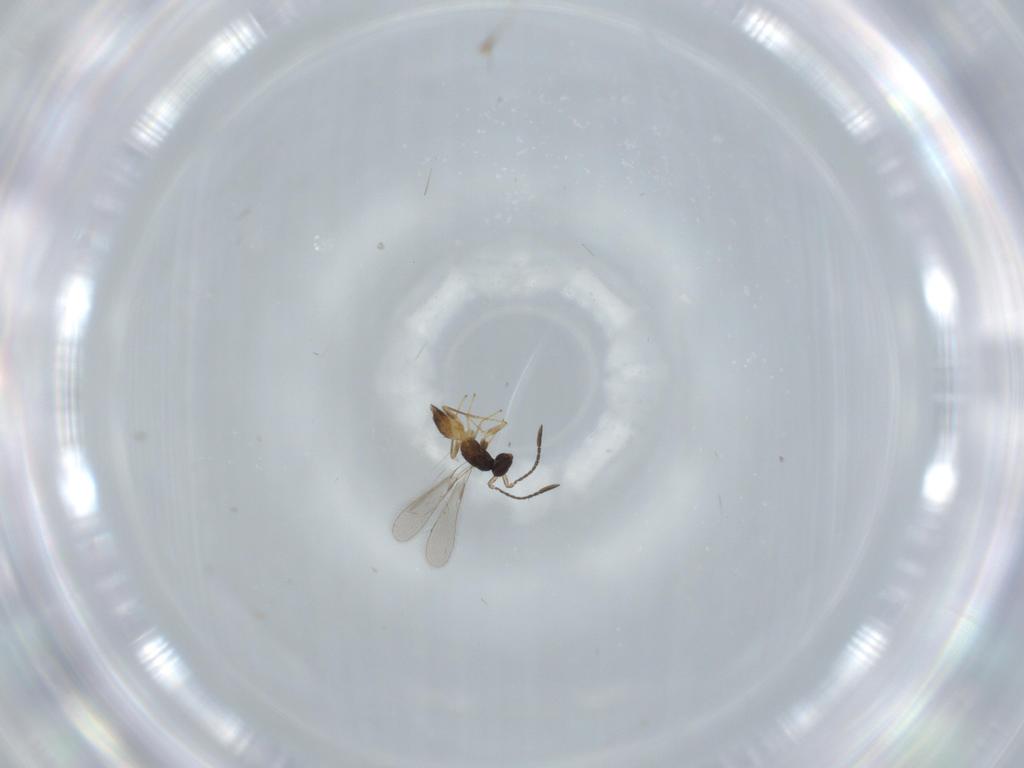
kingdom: Animalia
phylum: Arthropoda
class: Insecta
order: Hymenoptera
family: Mymaridae
